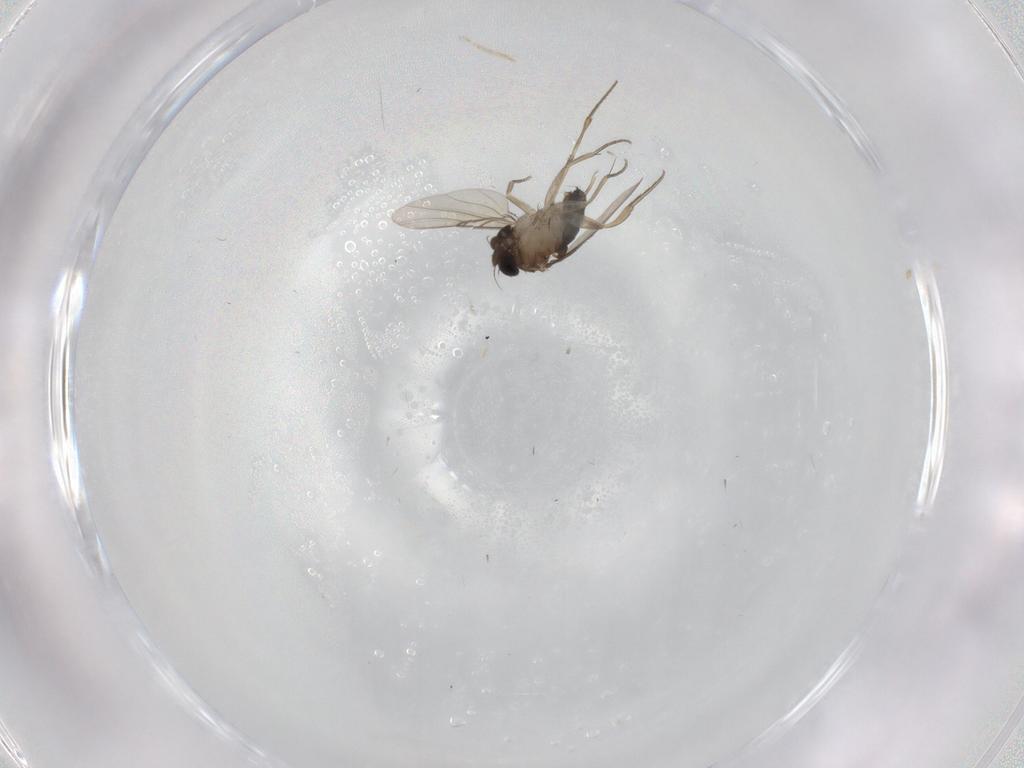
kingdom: Animalia
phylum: Arthropoda
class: Insecta
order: Diptera
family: Phoridae
